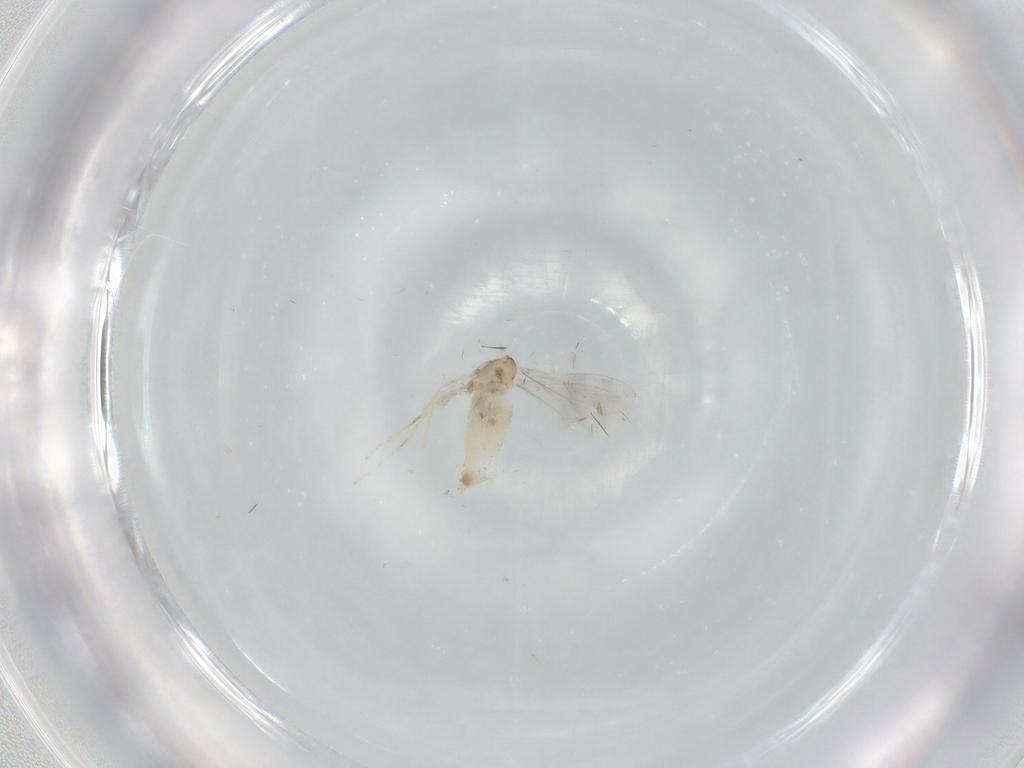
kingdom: Animalia
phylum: Arthropoda
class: Insecta
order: Diptera
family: Cecidomyiidae
